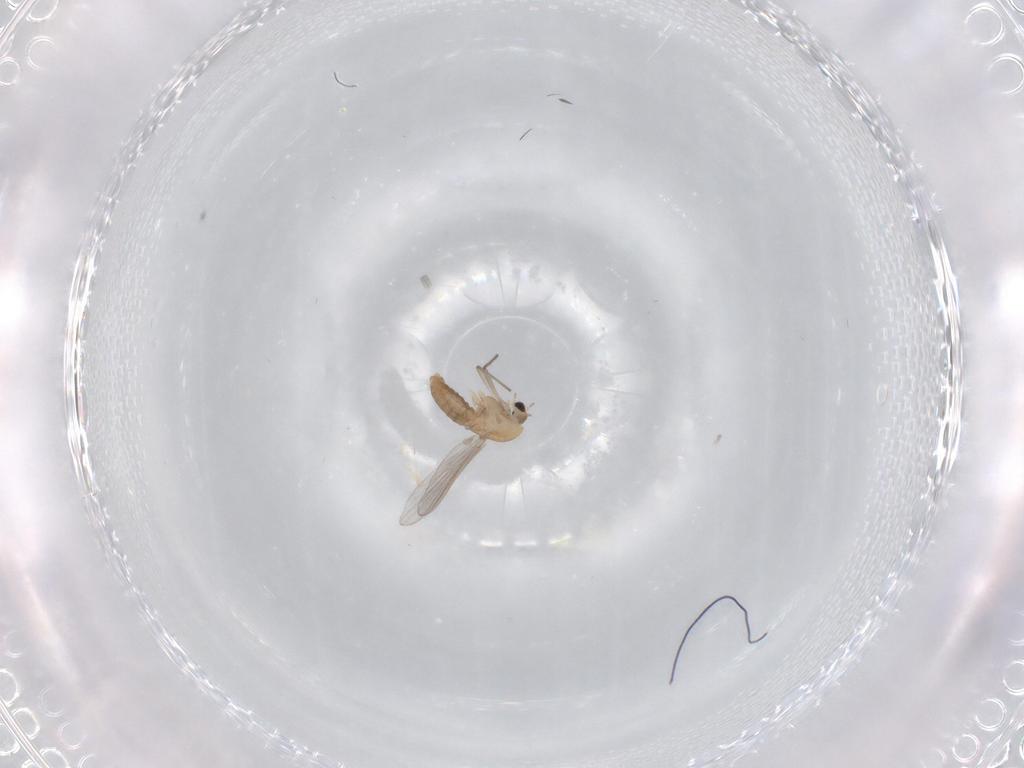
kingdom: Animalia
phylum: Arthropoda
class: Insecta
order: Diptera
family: Chironomidae
